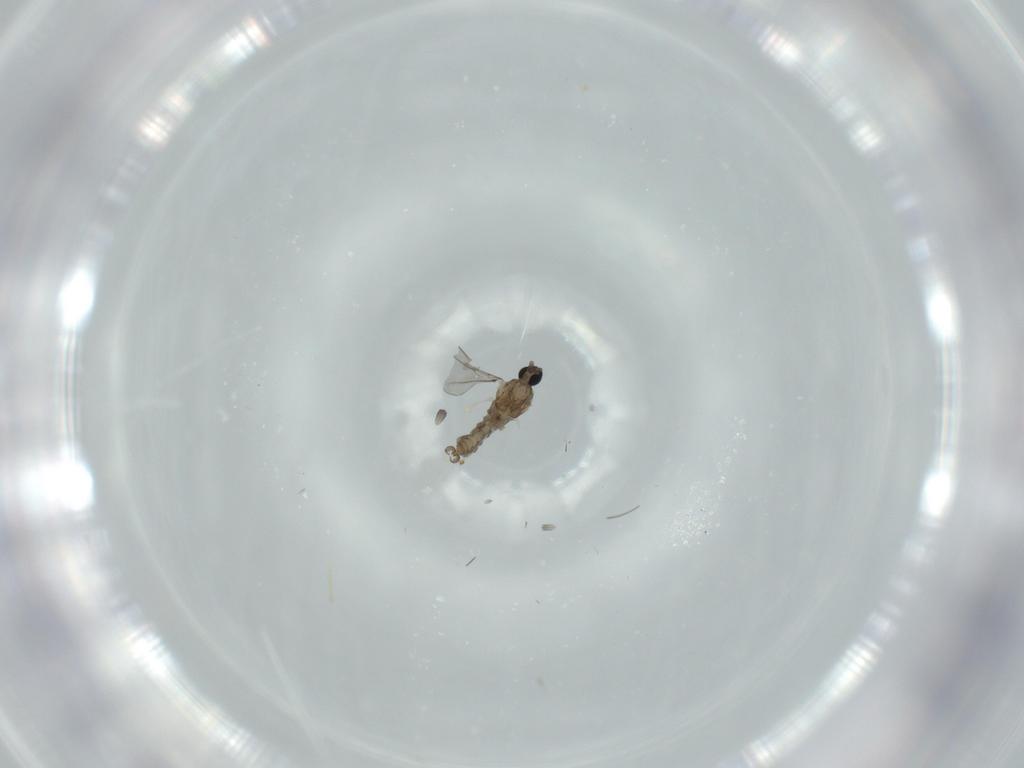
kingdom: Animalia
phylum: Arthropoda
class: Insecta
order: Diptera
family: Cecidomyiidae
